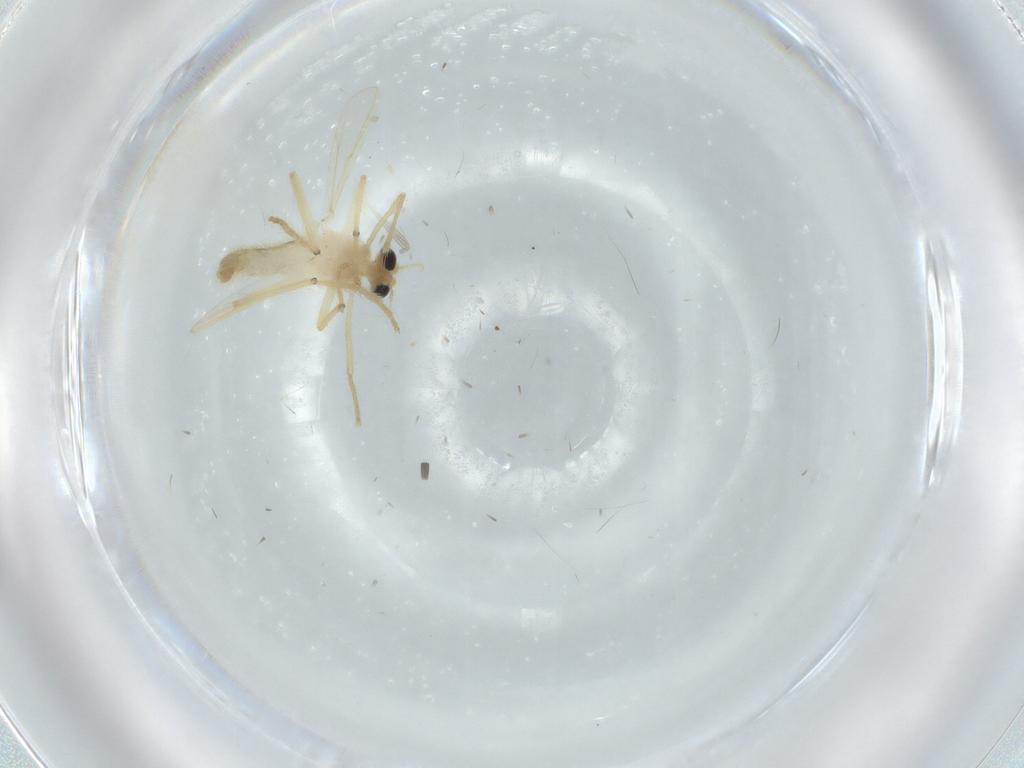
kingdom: Animalia
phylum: Arthropoda
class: Insecta
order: Diptera
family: Chironomidae
